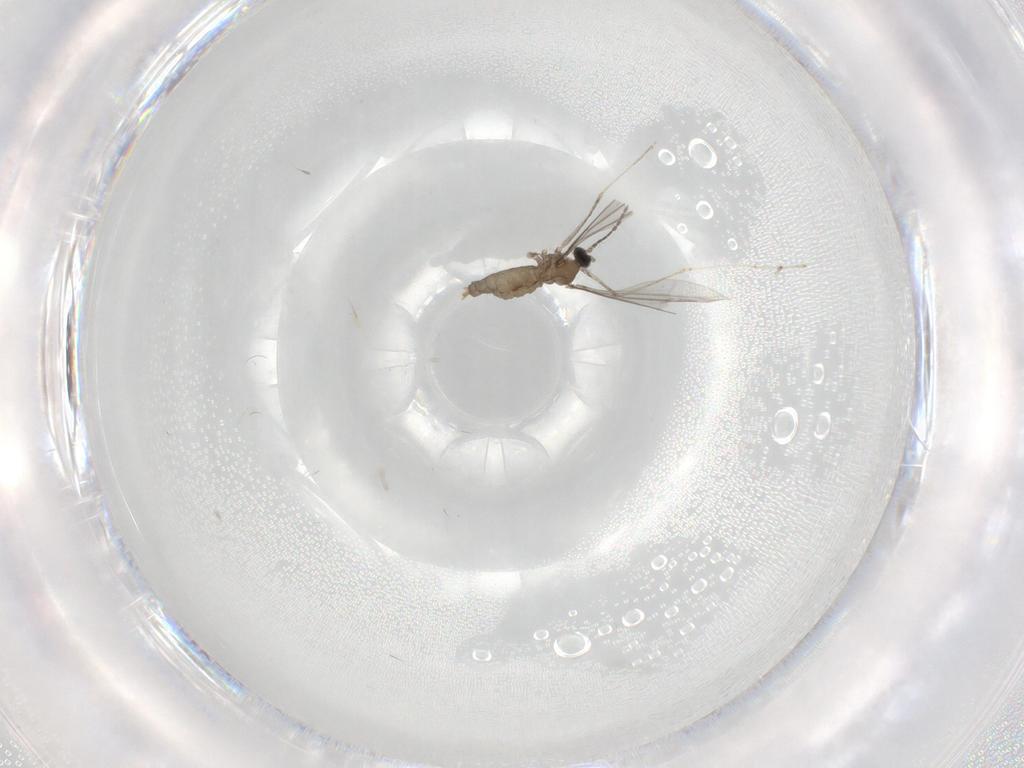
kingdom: Animalia
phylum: Arthropoda
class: Insecta
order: Diptera
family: Cecidomyiidae
